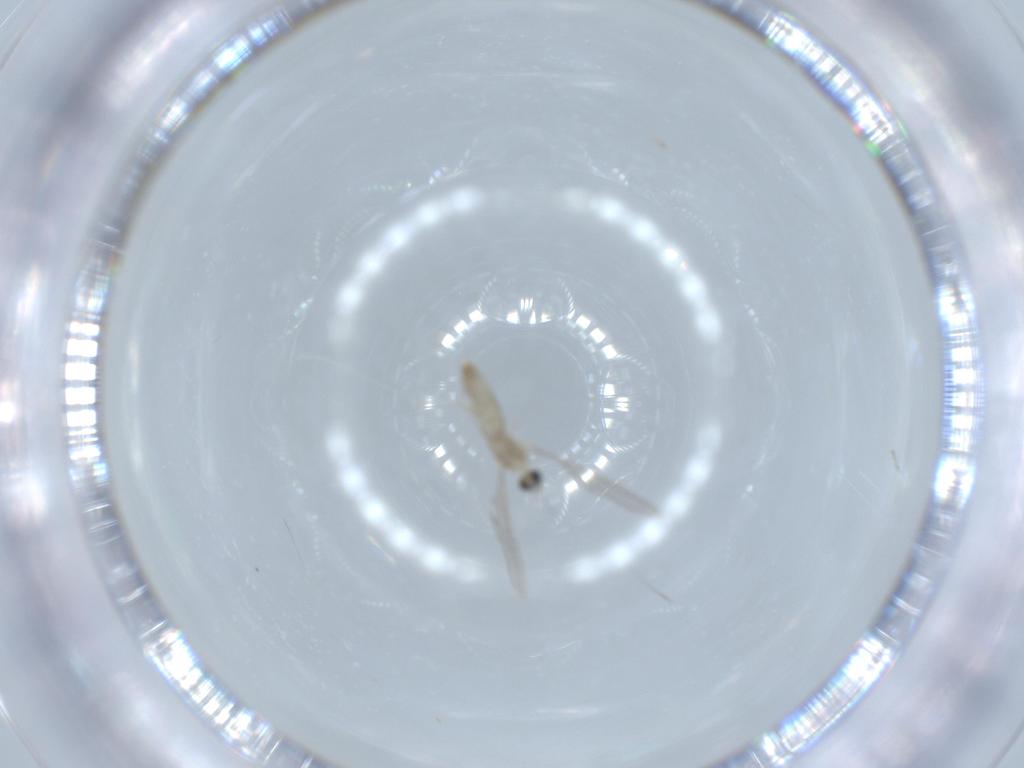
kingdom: Animalia
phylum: Arthropoda
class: Insecta
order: Diptera
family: Cecidomyiidae
